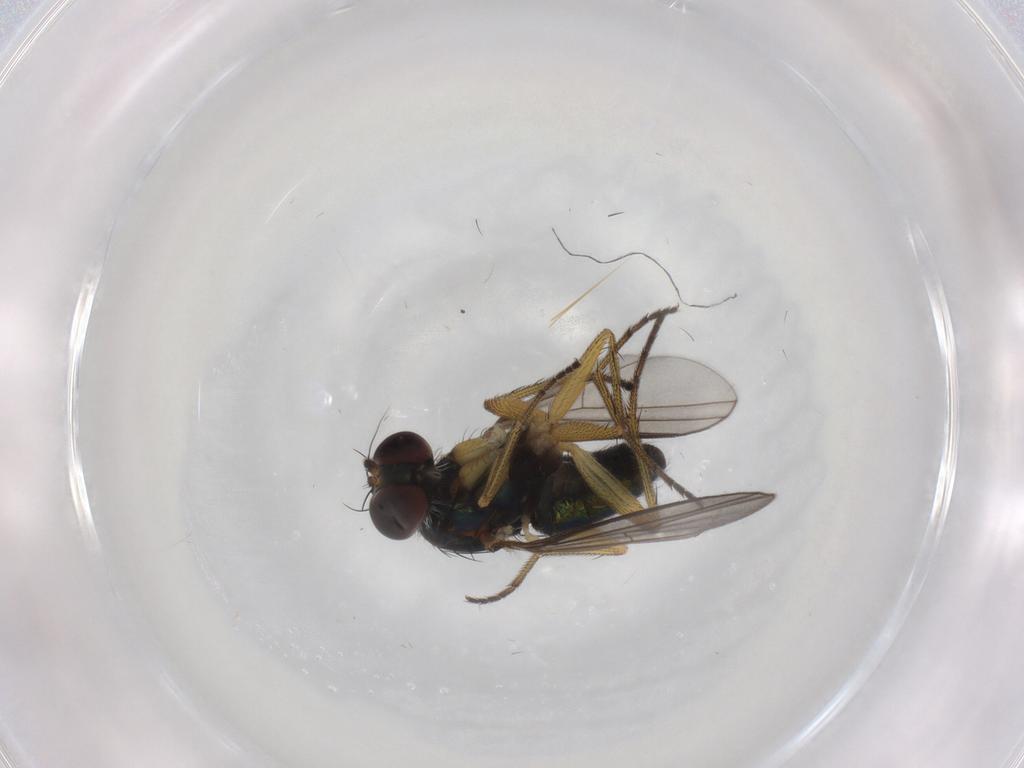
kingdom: Animalia
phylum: Arthropoda
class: Insecta
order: Diptera
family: Dolichopodidae
